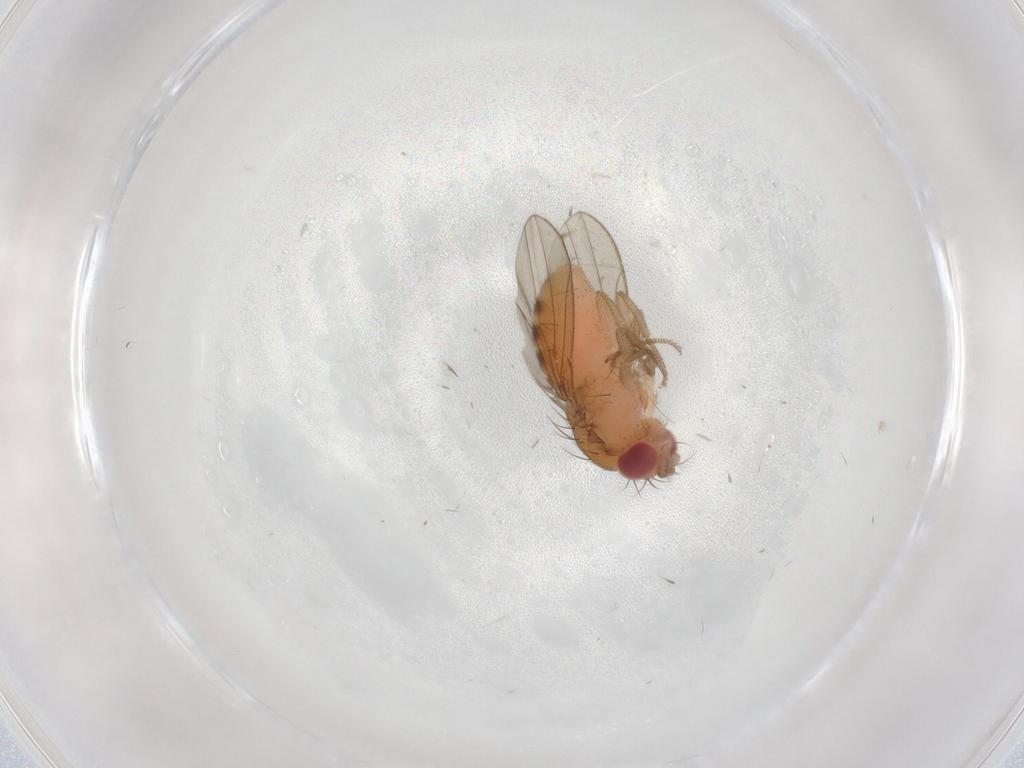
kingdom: Animalia
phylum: Arthropoda
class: Insecta
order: Diptera
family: Drosophilidae
